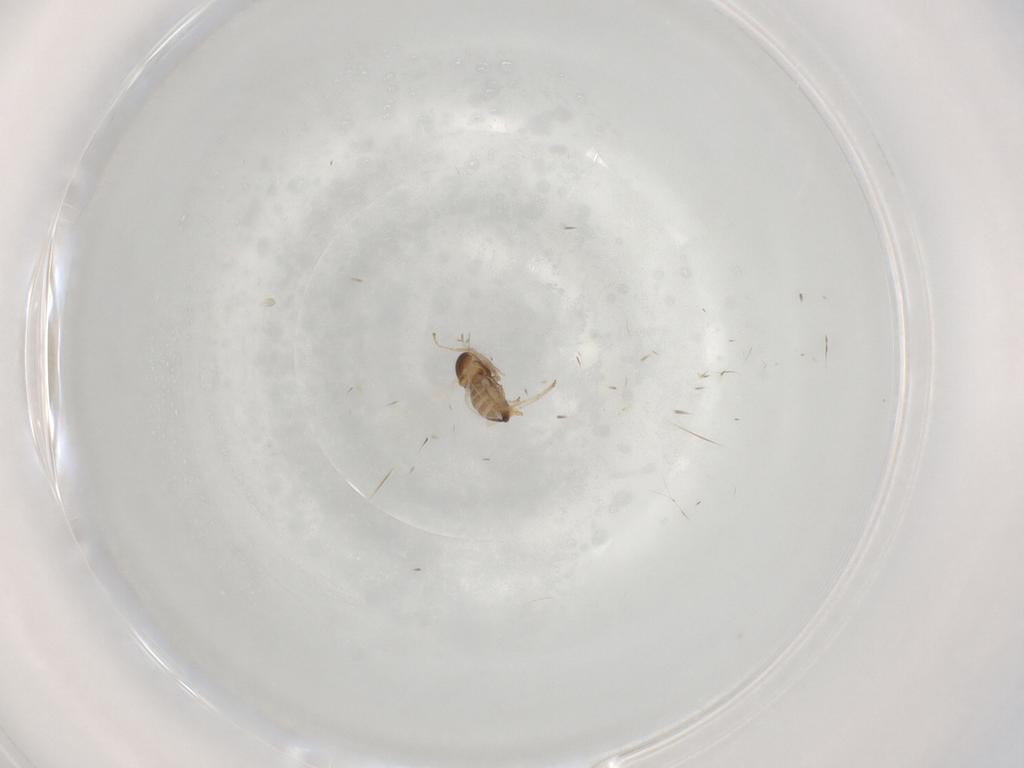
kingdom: Animalia
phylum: Arthropoda
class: Insecta
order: Diptera
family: Cecidomyiidae
